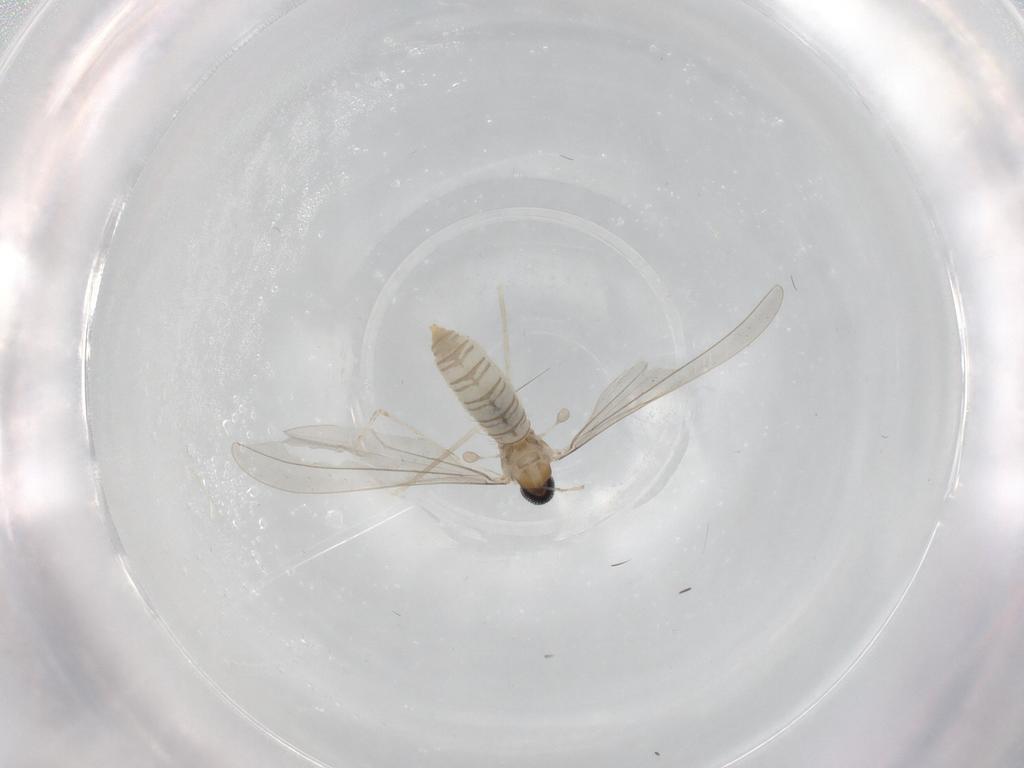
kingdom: Animalia
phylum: Arthropoda
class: Insecta
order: Diptera
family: Cecidomyiidae
